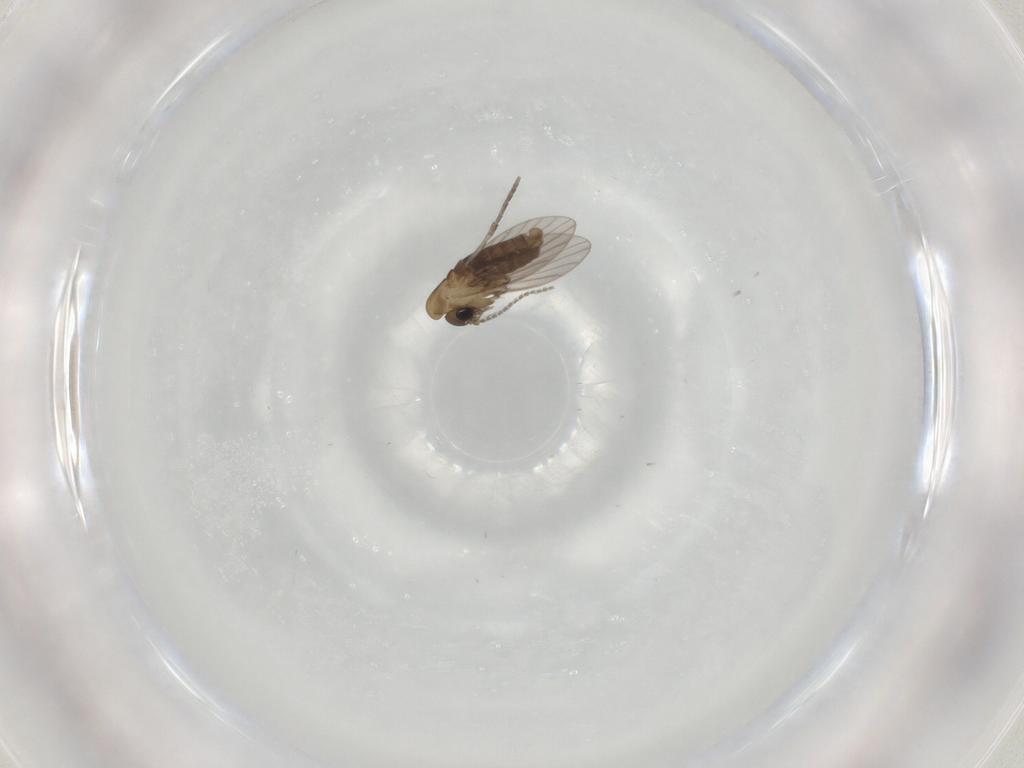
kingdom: Animalia
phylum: Arthropoda
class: Insecta
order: Diptera
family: Psychodidae
